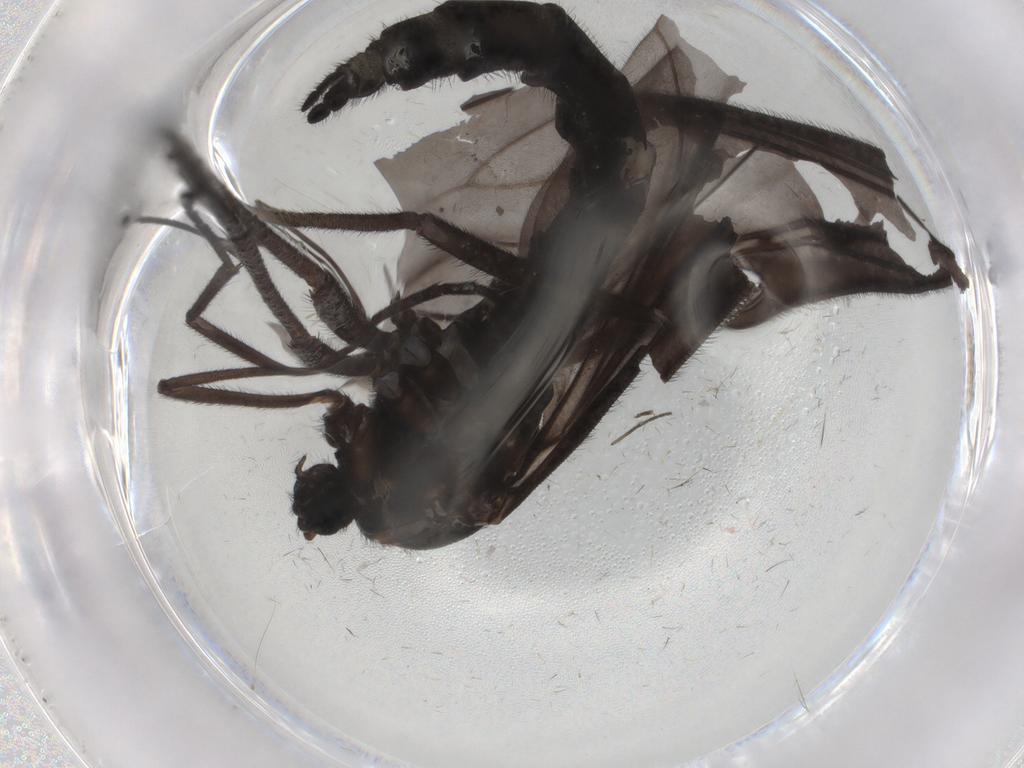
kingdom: Animalia
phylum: Arthropoda
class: Insecta
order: Diptera
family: Sciaridae
